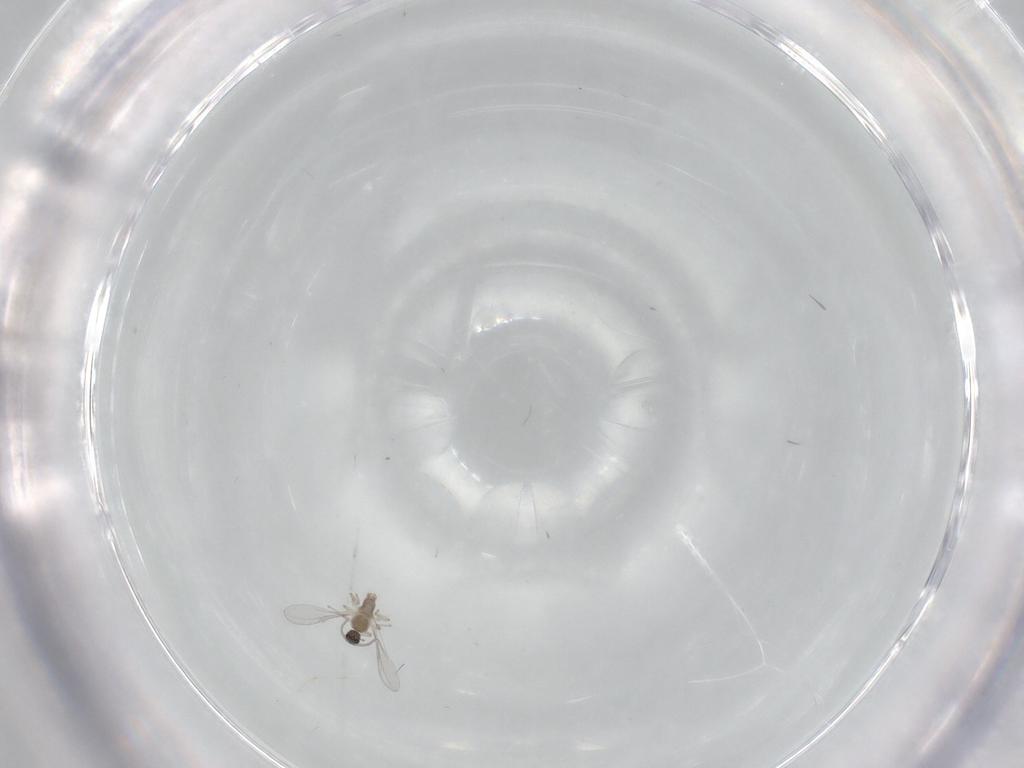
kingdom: Animalia
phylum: Arthropoda
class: Insecta
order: Diptera
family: Cecidomyiidae
